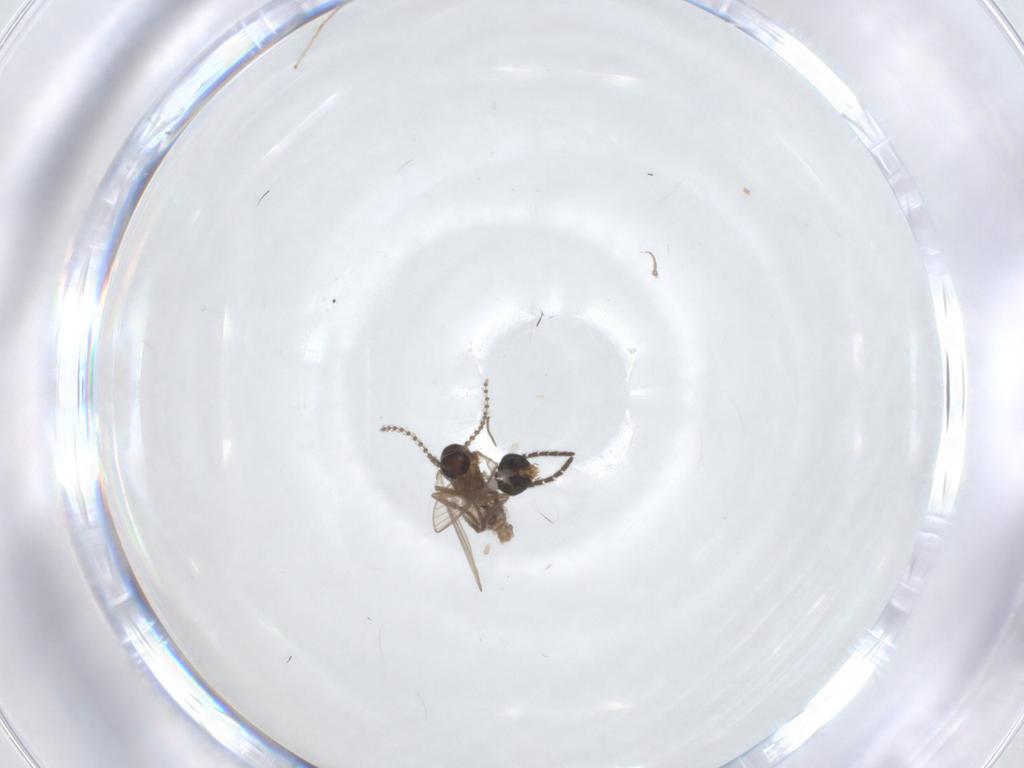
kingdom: Animalia
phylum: Arthropoda
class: Insecta
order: Diptera
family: Psychodidae
